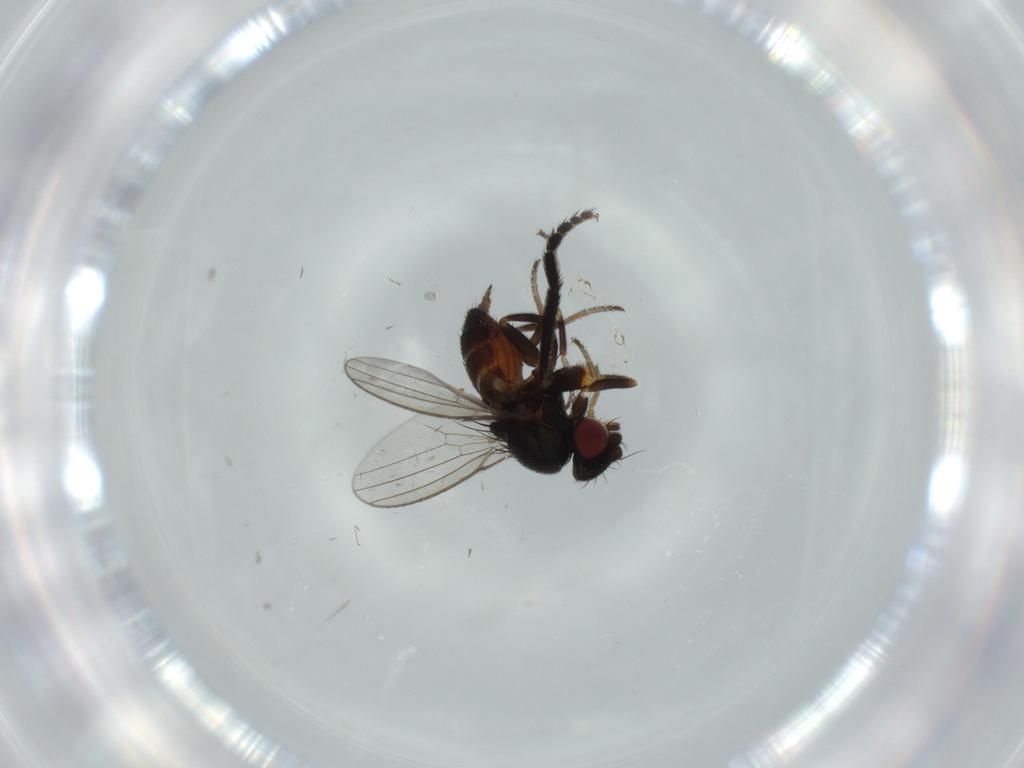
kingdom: Animalia
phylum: Arthropoda
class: Insecta
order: Diptera
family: Milichiidae
